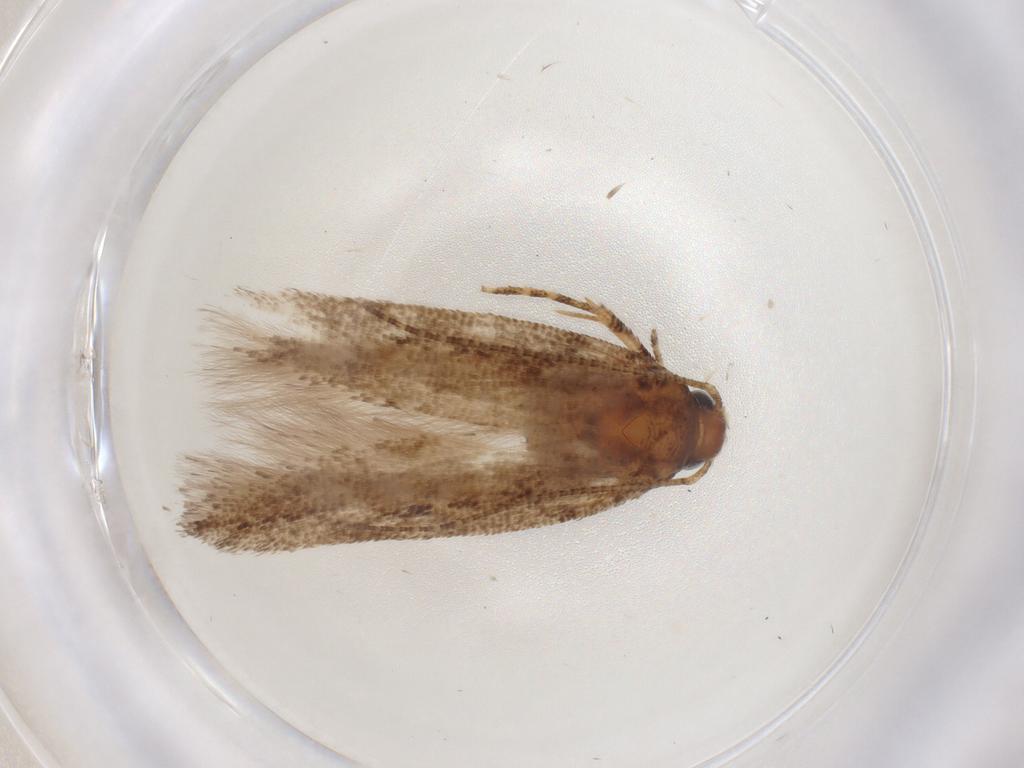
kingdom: Animalia
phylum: Arthropoda
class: Insecta
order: Lepidoptera
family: Gelechiidae
